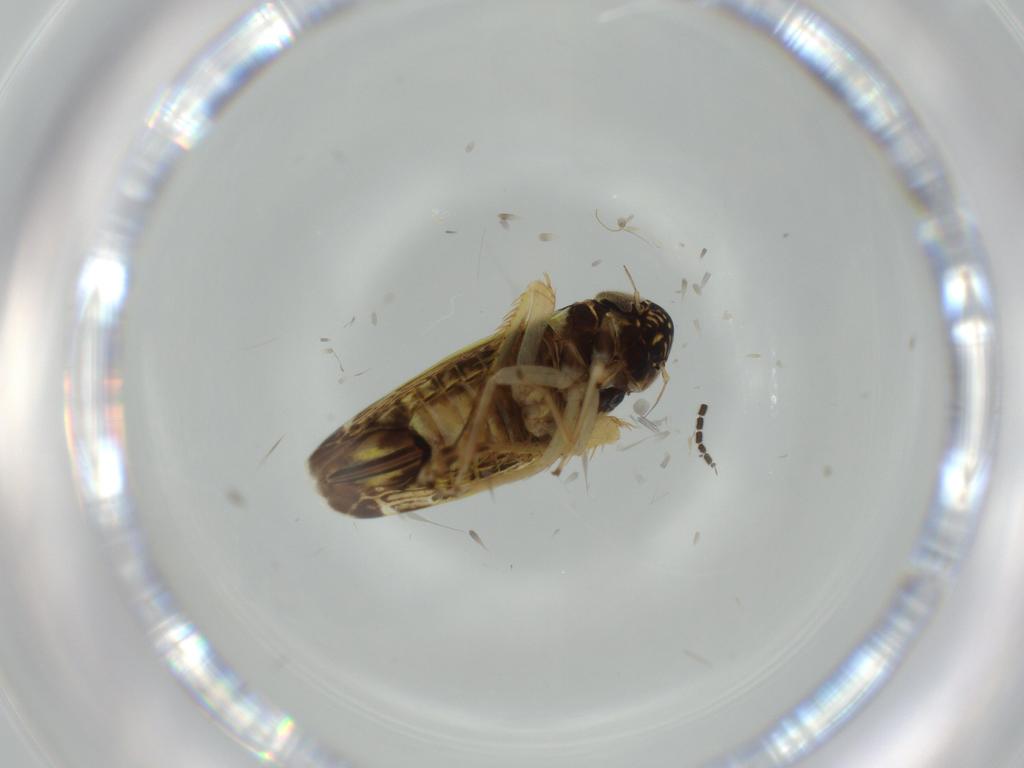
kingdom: Animalia
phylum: Arthropoda
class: Insecta
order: Hemiptera
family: Cicadellidae
